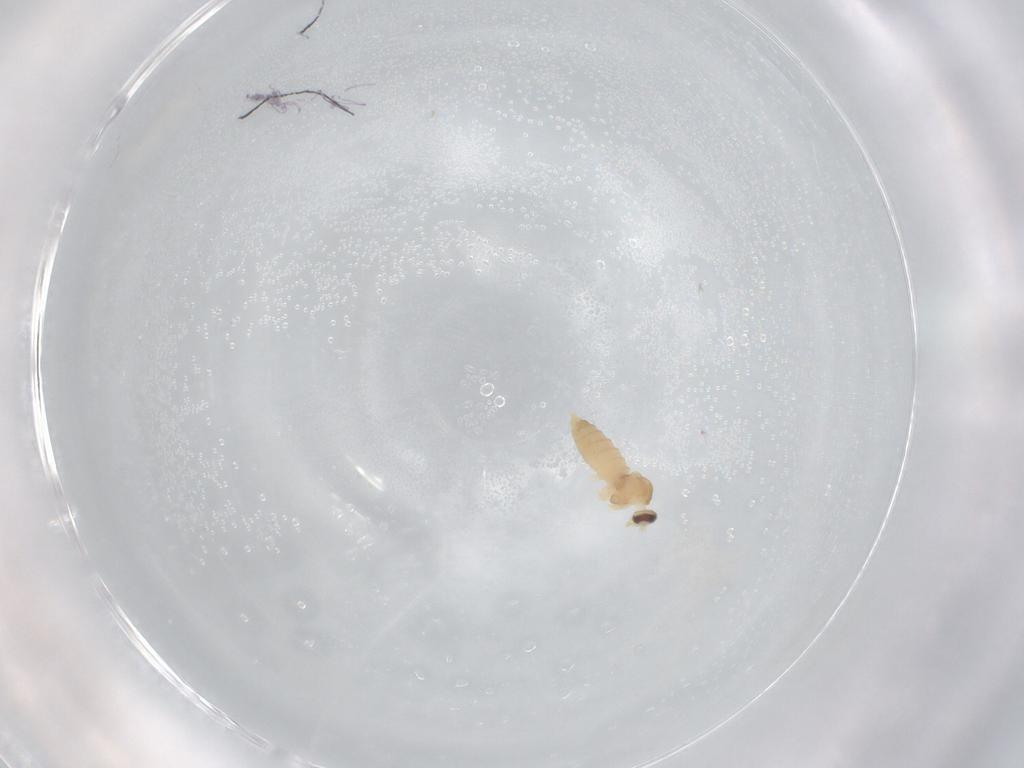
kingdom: Animalia
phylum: Arthropoda
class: Insecta
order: Diptera
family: Cecidomyiidae
